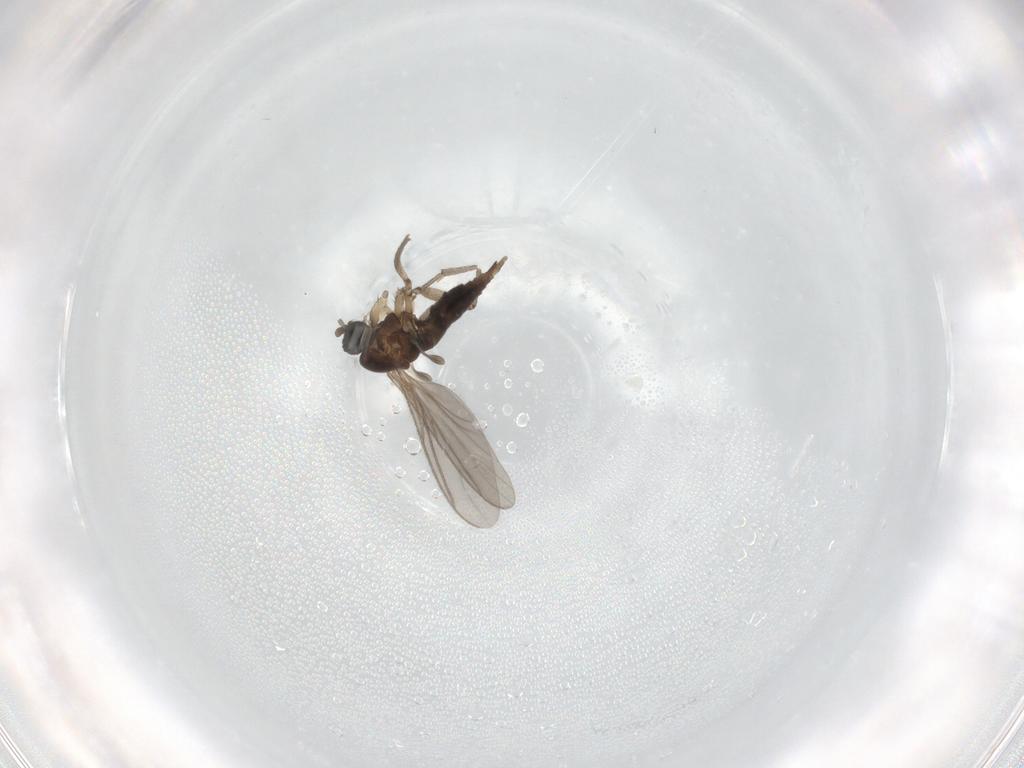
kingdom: Animalia
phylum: Arthropoda
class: Insecta
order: Diptera
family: Sciaridae
